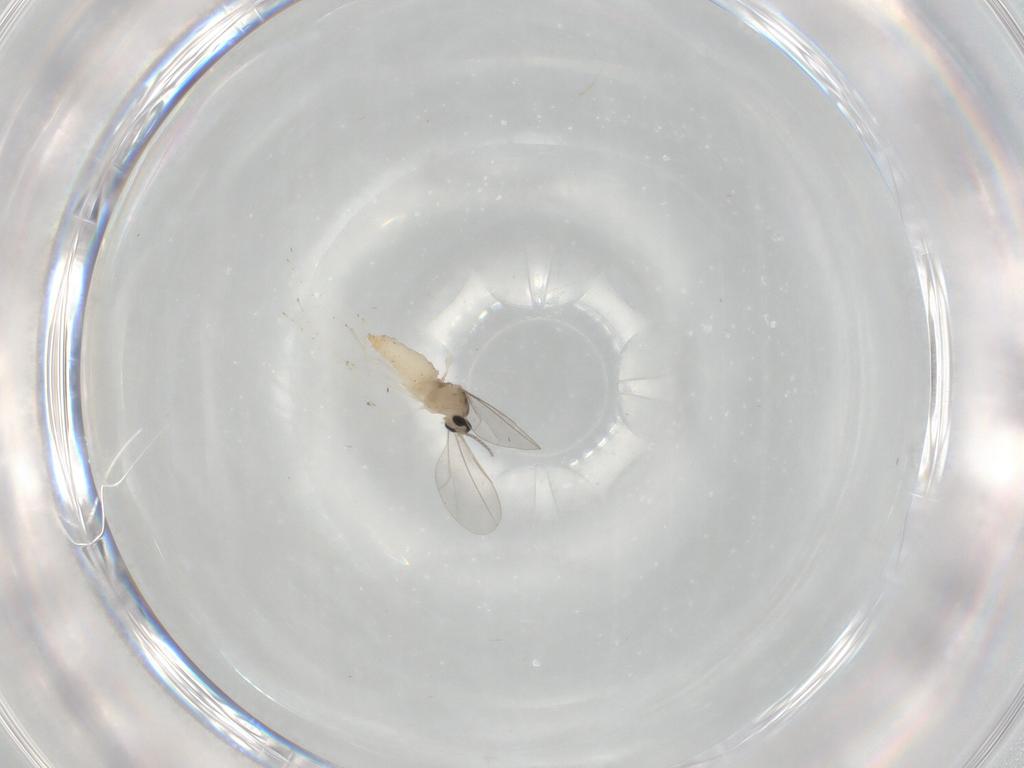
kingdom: Animalia
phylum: Arthropoda
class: Insecta
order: Diptera
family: Cecidomyiidae
